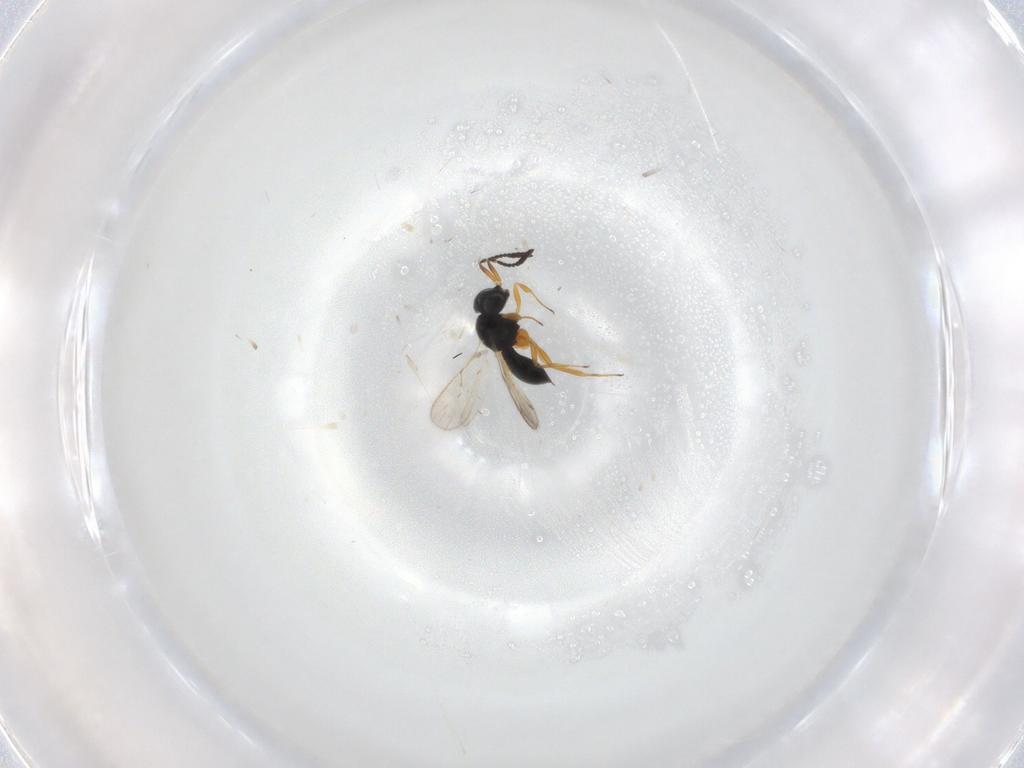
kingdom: Animalia
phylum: Arthropoda
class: Insecta
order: Hymenoptera
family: Scelionidae
